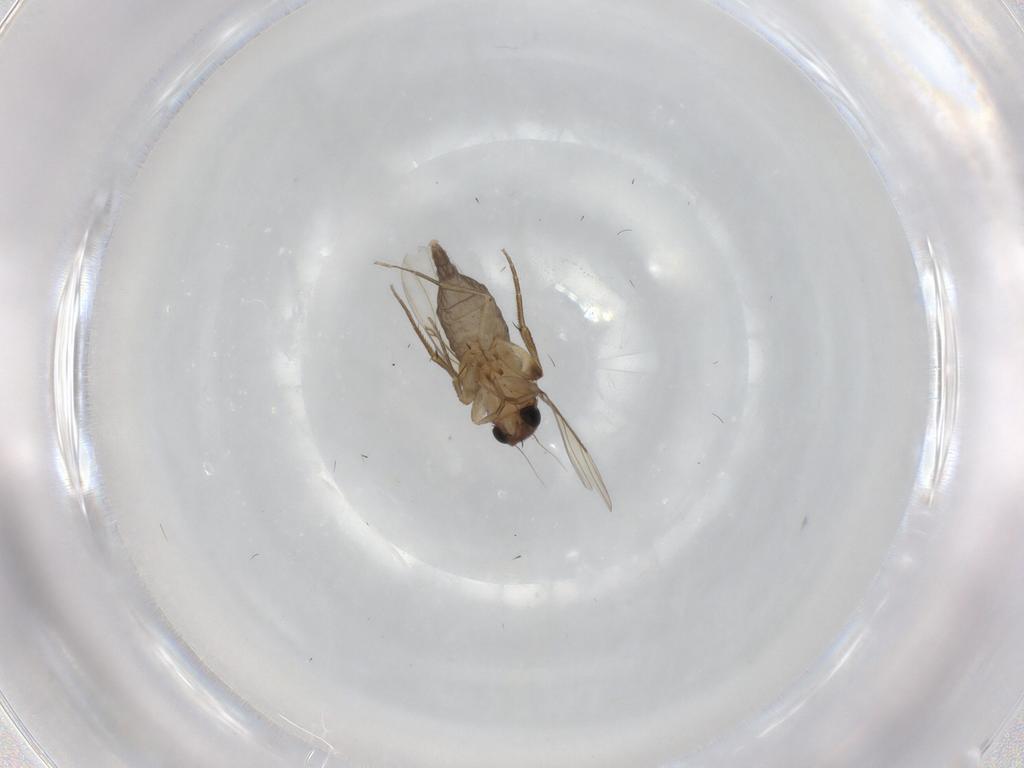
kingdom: Animalia
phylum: Arthropoda
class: Insecta
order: Diptera
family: Phoridae
